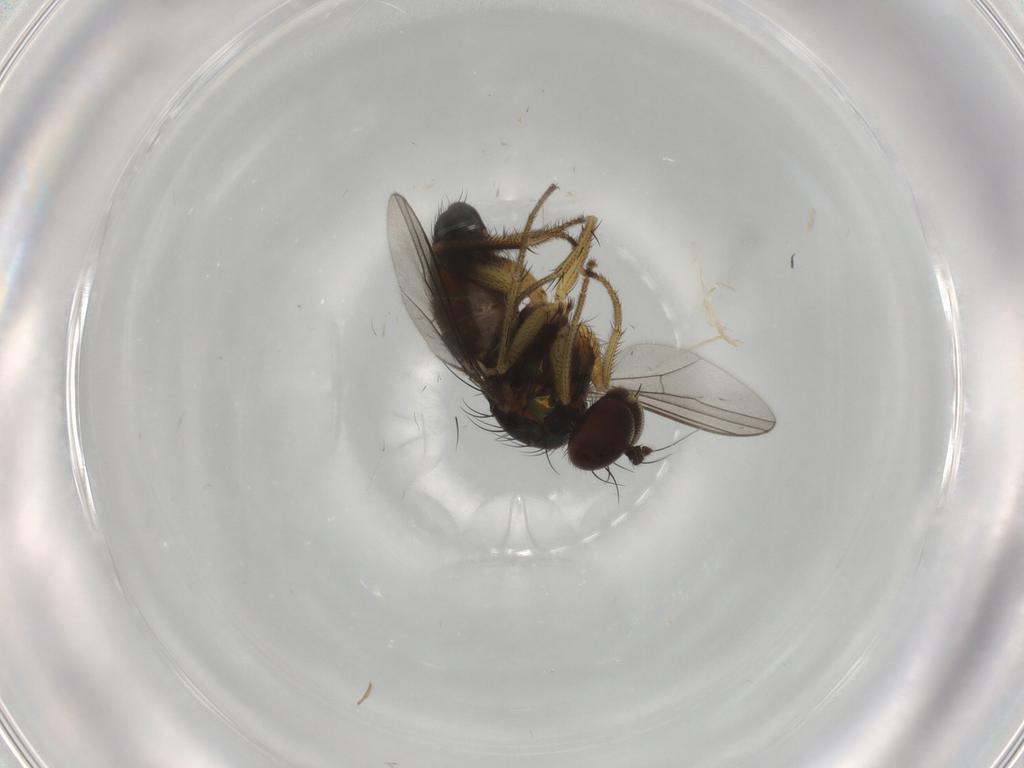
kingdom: Animalia
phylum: Arthropoda
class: Insecta
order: Diptera
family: Dolichopodidae
